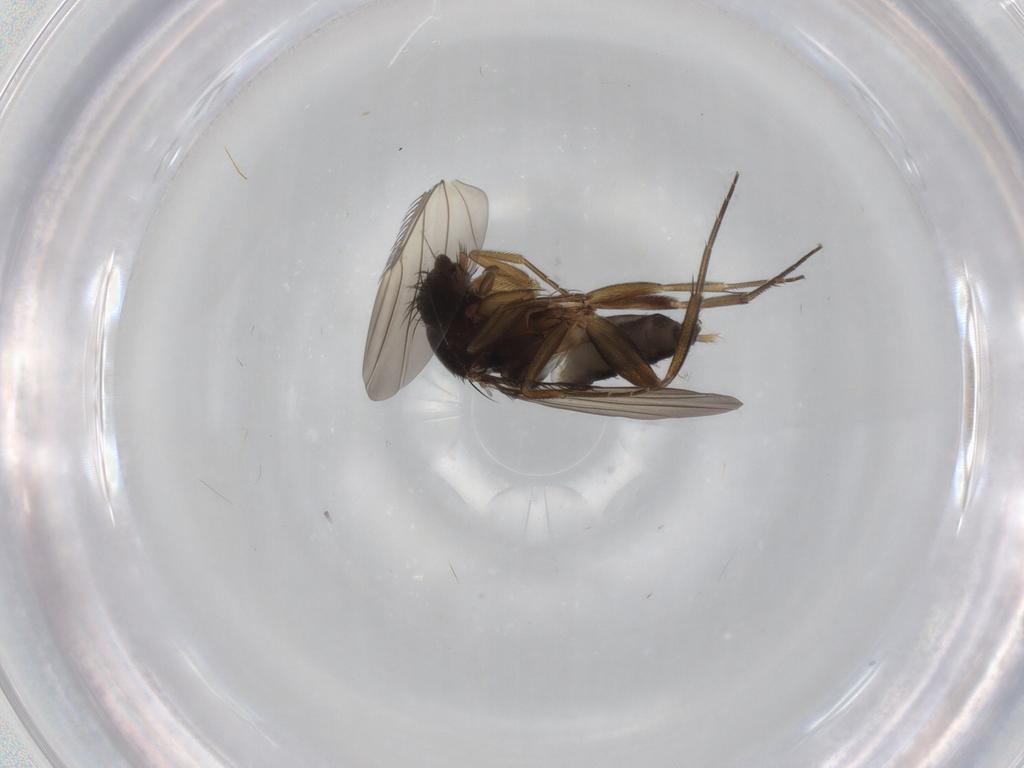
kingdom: Animalia
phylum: Arthropoda
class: Insecta
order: Diptera
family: Phoridae
